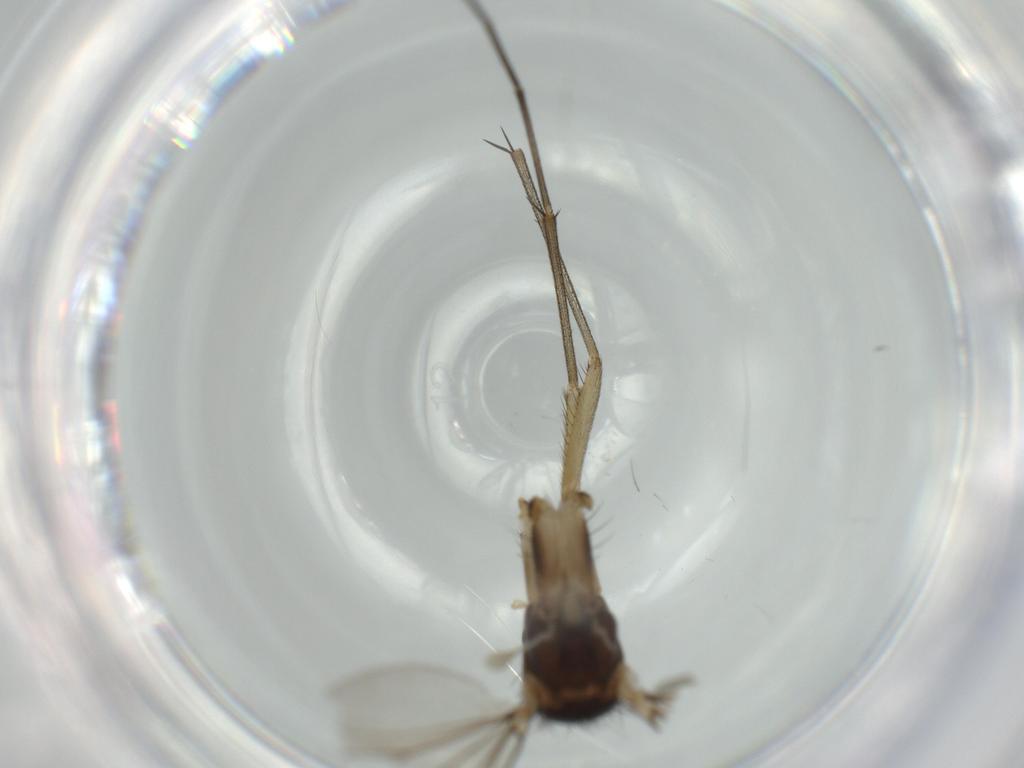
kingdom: Animalia
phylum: Arthropoda
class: Insecta
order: Diptera
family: Mycetophilidae
